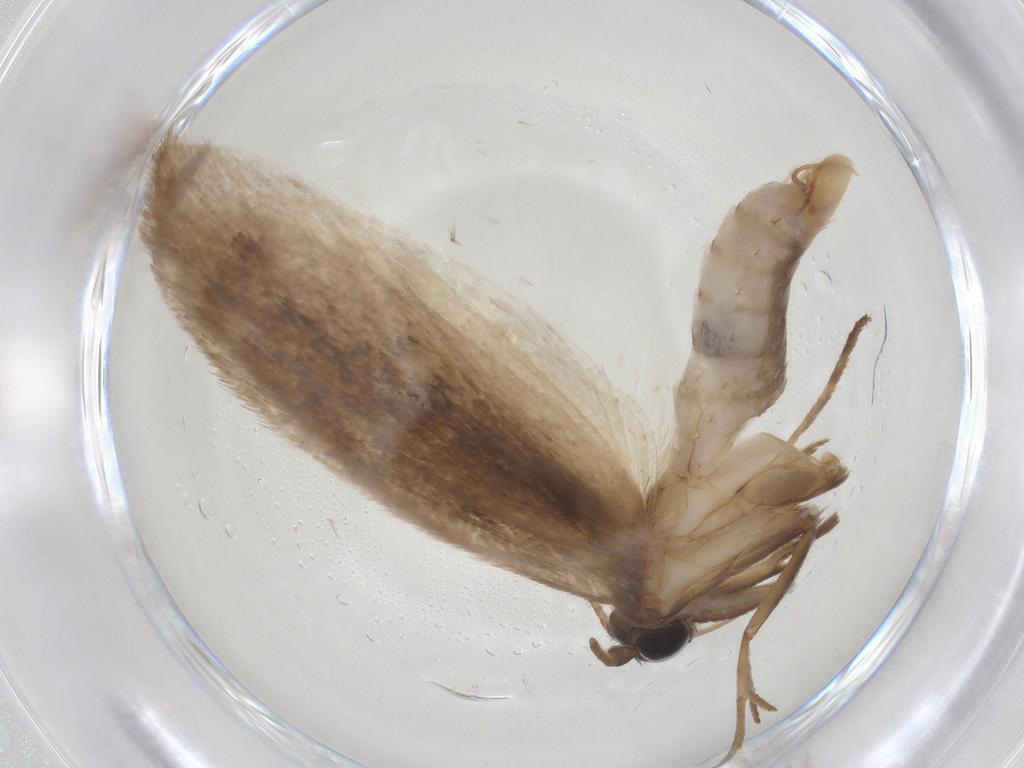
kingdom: Animalia
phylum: Arthropoda
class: Insecta
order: Lepidoptera
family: Roeslerstammiidae
